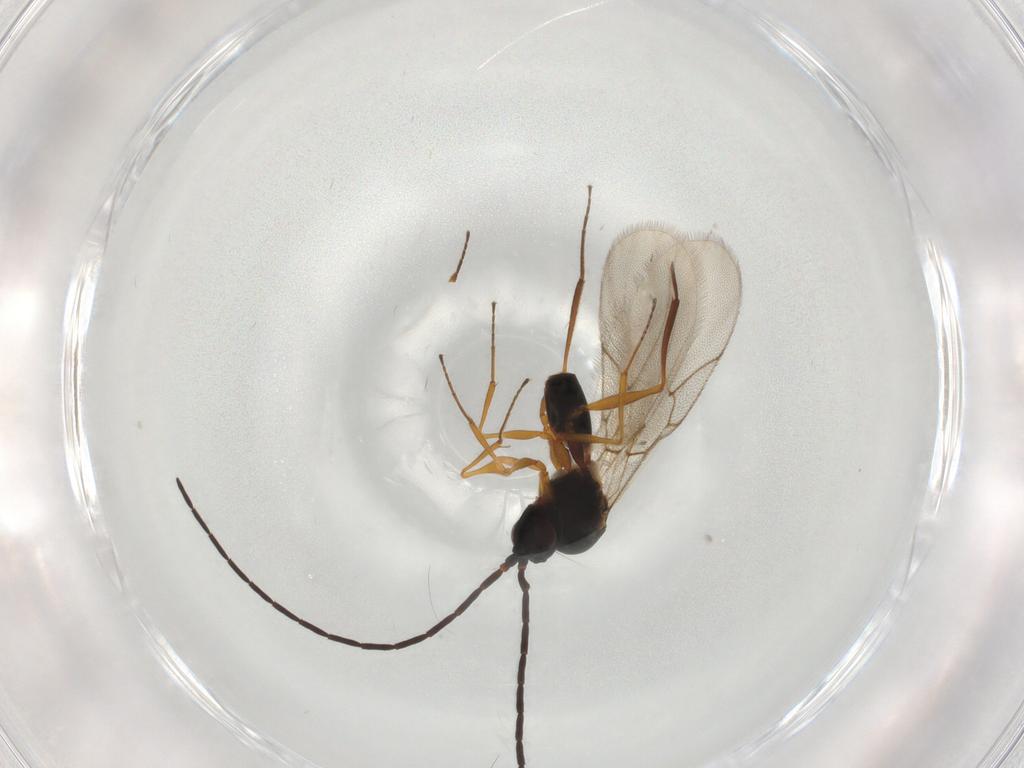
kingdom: Animalia
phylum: Arthropoda
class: Insecta
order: Hymenoptera
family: Figitidae
